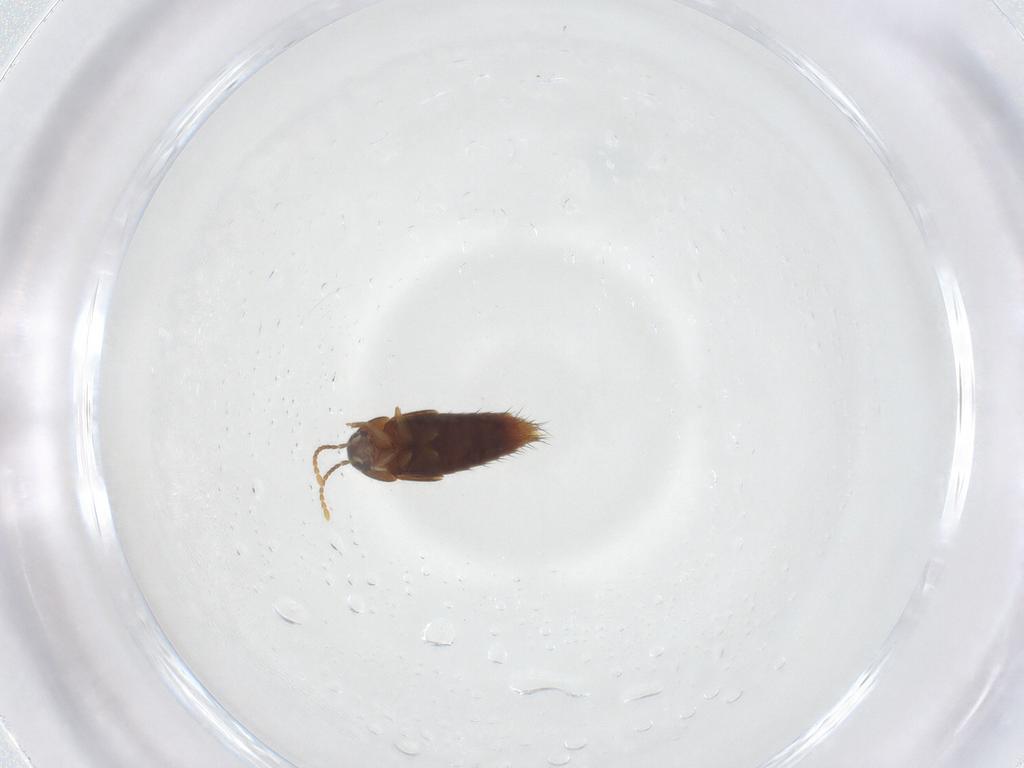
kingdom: Animalia
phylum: Arthropoda
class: Insecta
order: Coleoptera
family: Staphylinidae
